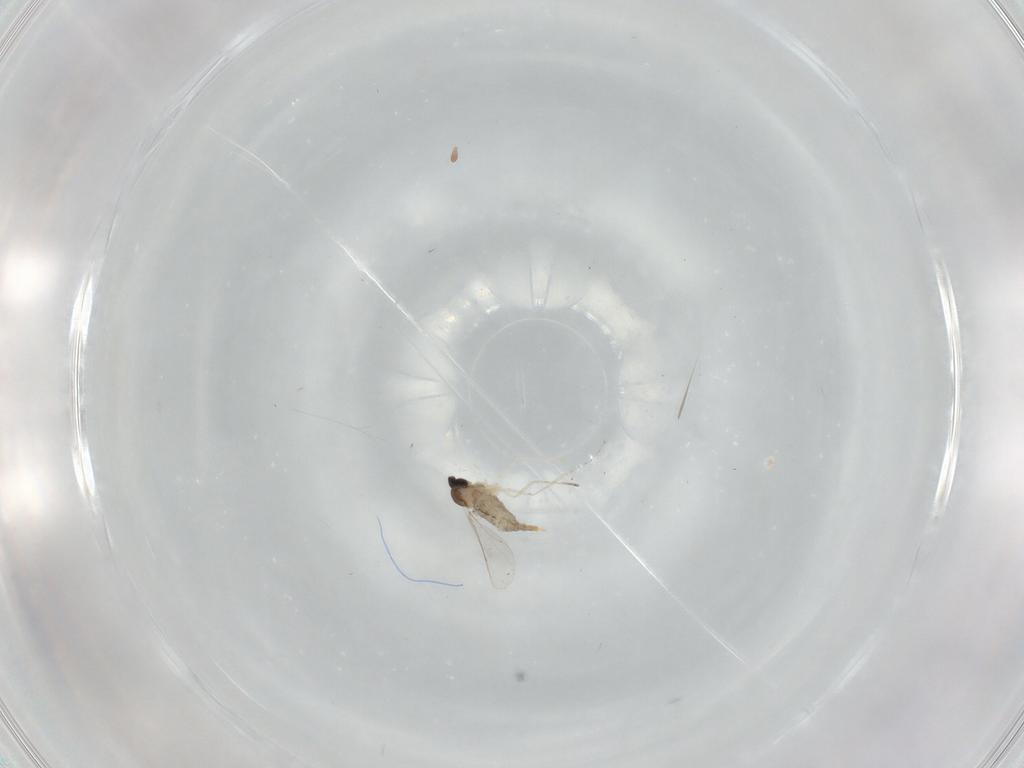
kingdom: Animalia
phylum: Arthropoda
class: Insecta
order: Diptera
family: Cecidomyiidae
